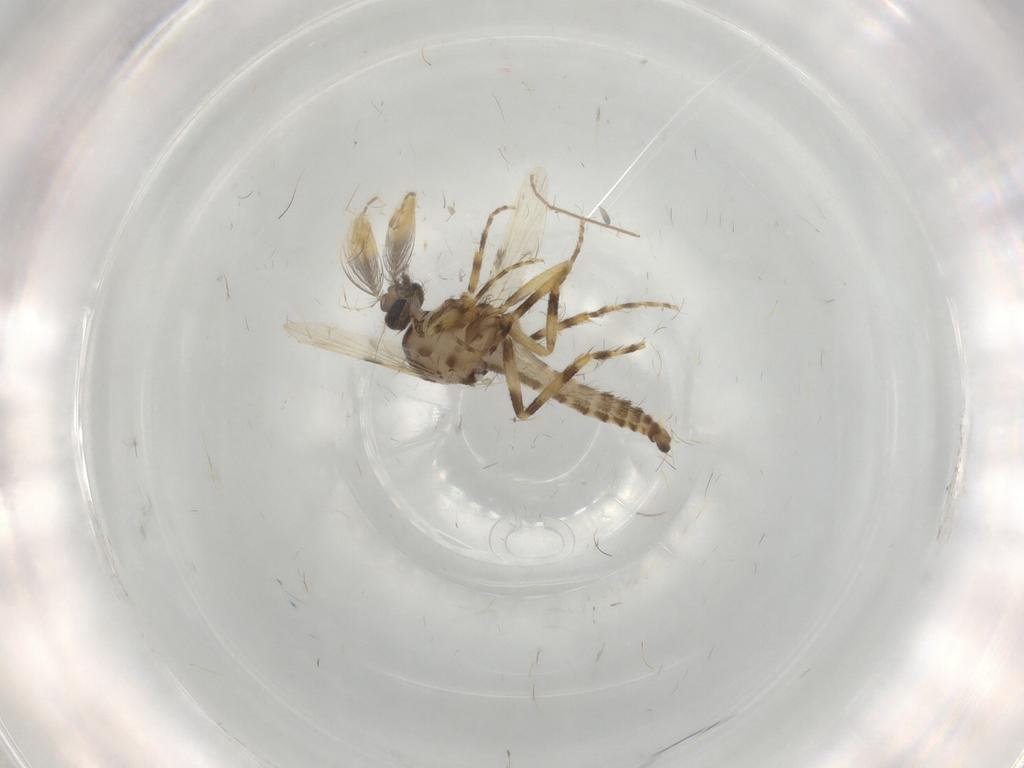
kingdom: Animalia
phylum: Arthropoda
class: Insecta
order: Diptera
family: Ceratopogonidae
